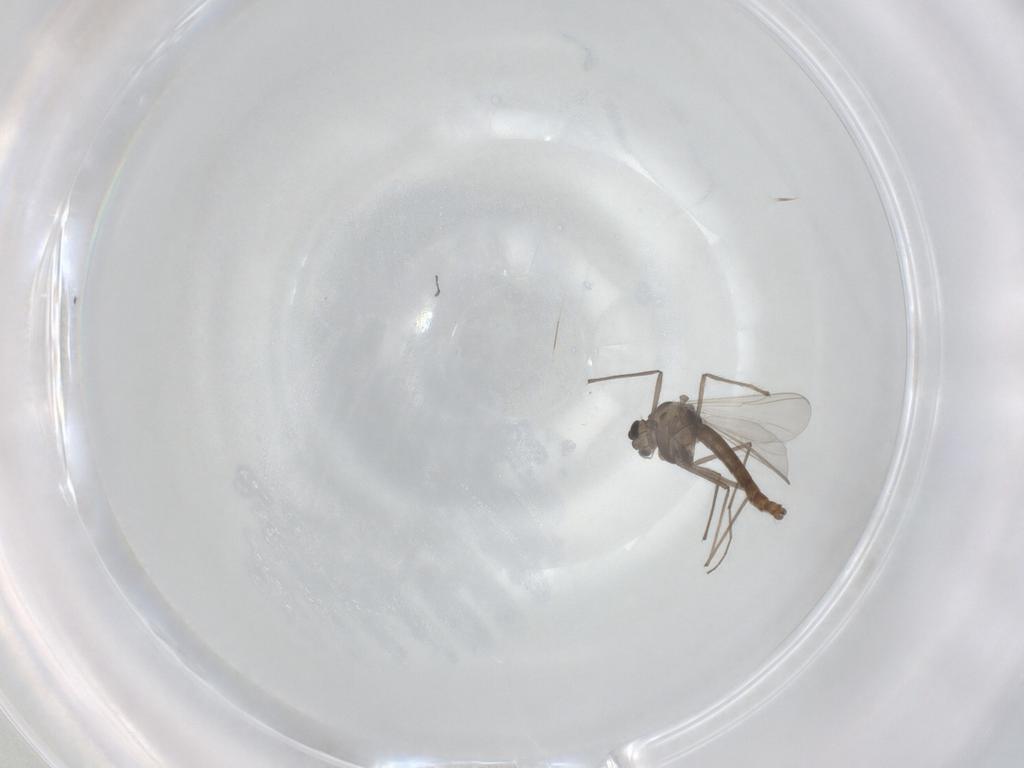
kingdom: Animalia
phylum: Arthropoda
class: Insecta
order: Diptera
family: Chironomidae
